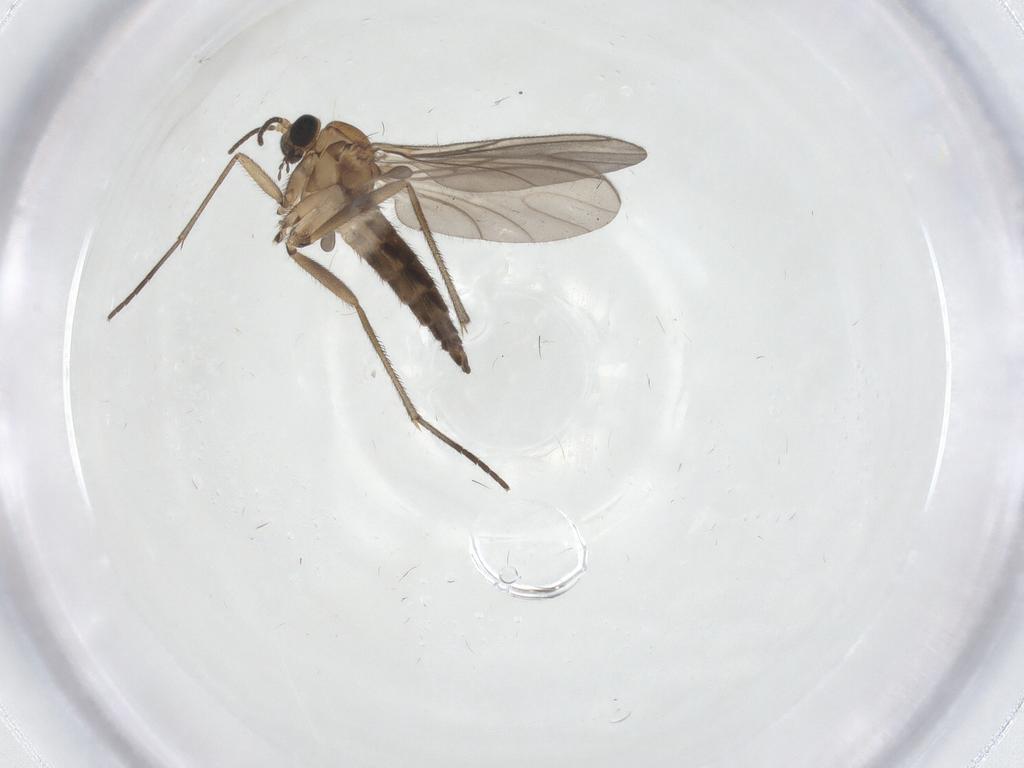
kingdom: Animalia
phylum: Arthropoda
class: Insecta
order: Diptera
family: Sciaridae
